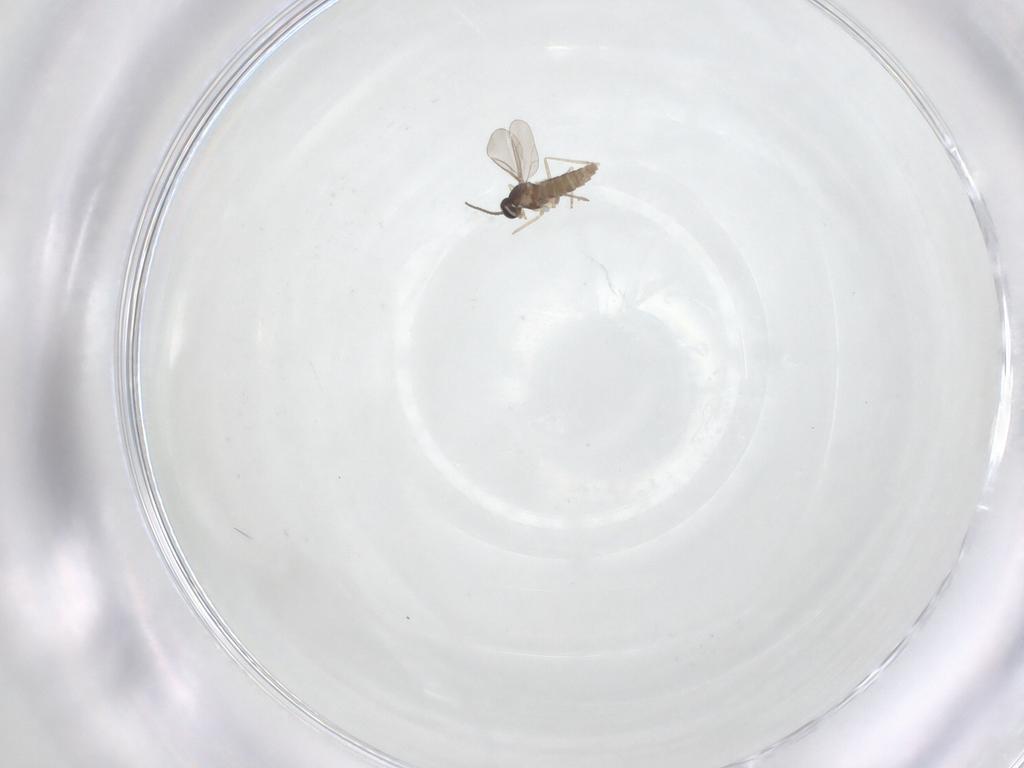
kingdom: Animalia
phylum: Arthropoda
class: Insecta
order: Diptera
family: Cecidomyiidae
